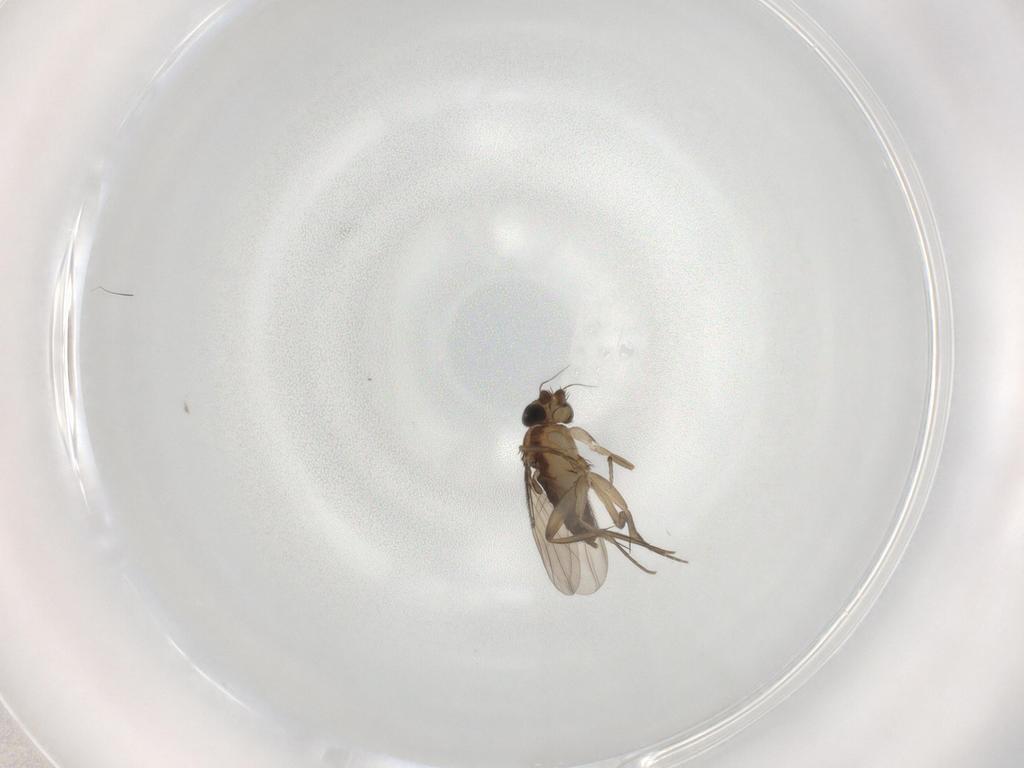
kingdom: Animalia
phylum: Arthropoda
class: Insecta
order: Diptera
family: Phoridae
